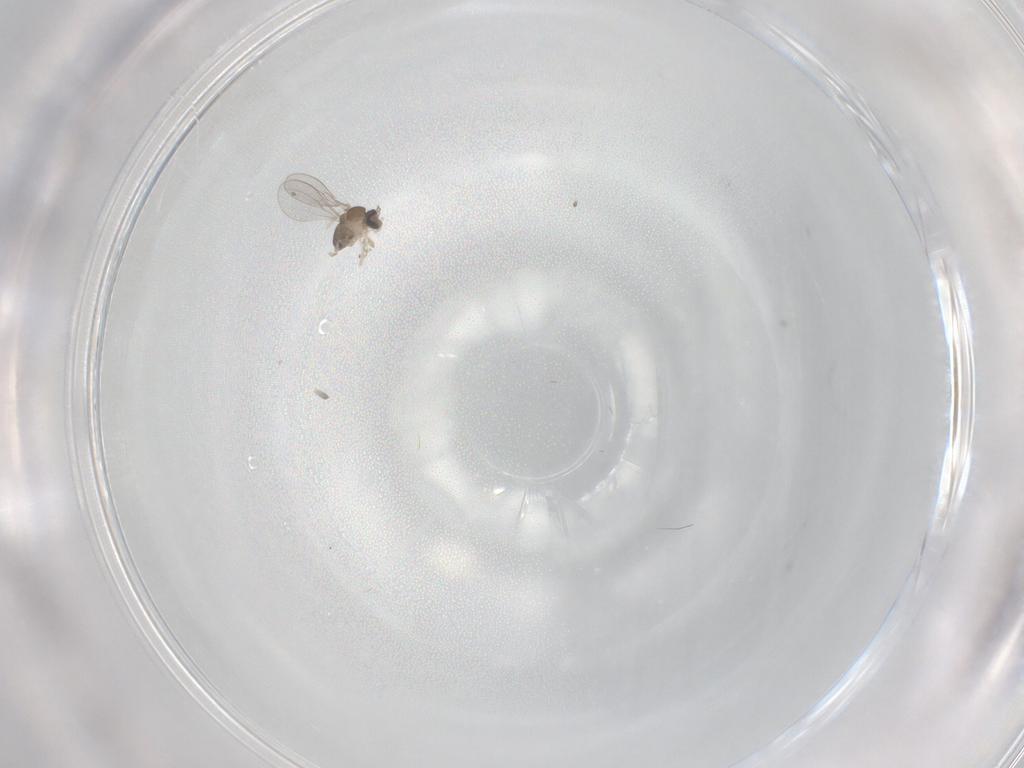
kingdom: Animalia
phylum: Arthropoda
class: Insecta
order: Diptera
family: Cecidomyiidae
